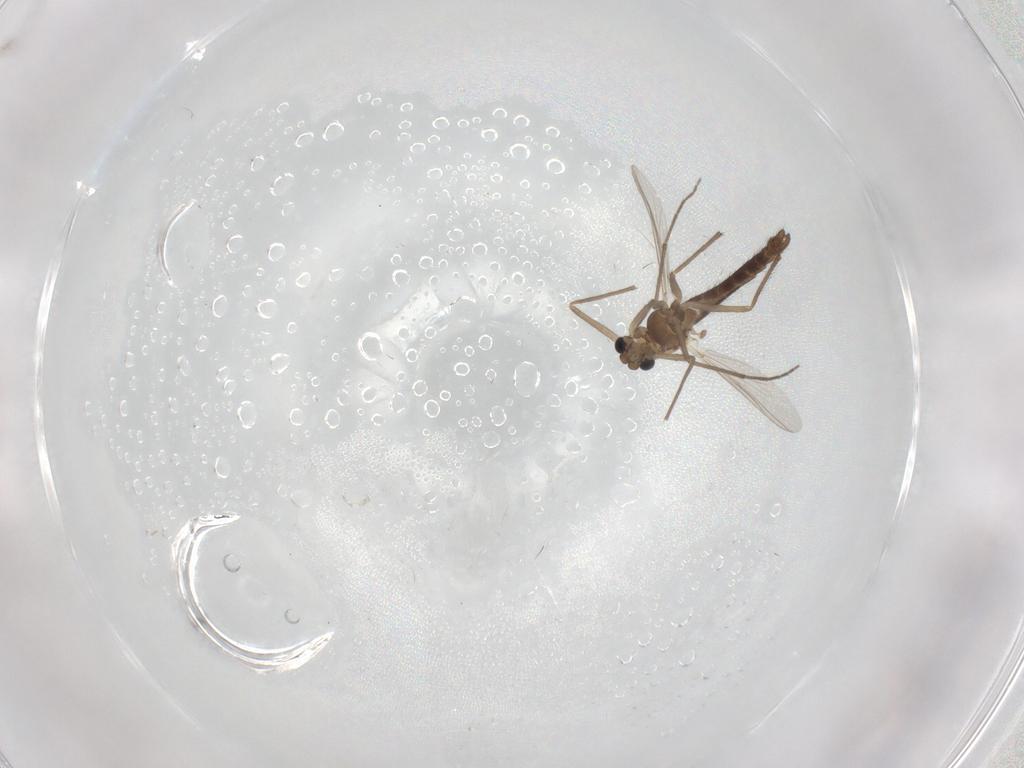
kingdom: Animalia
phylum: Arthropoda
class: Insecta
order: Diptera
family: Chironomidae
